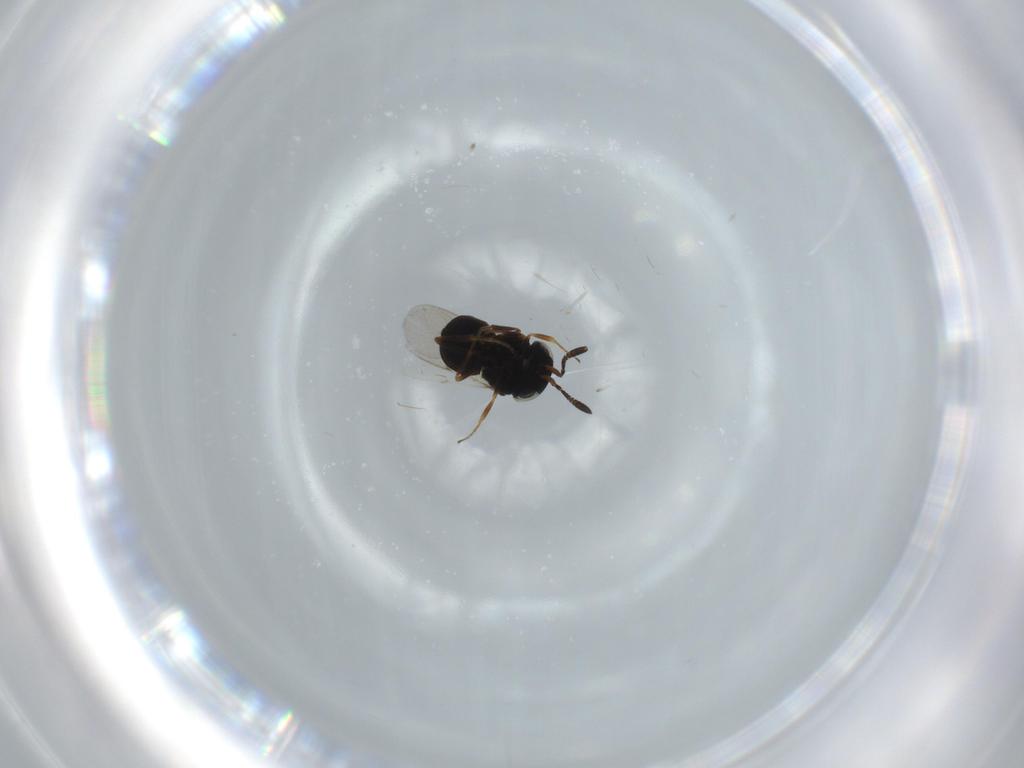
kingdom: Animalia
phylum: Arthropoda
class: Insecta
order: Hymenoptera
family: Scelionidae
